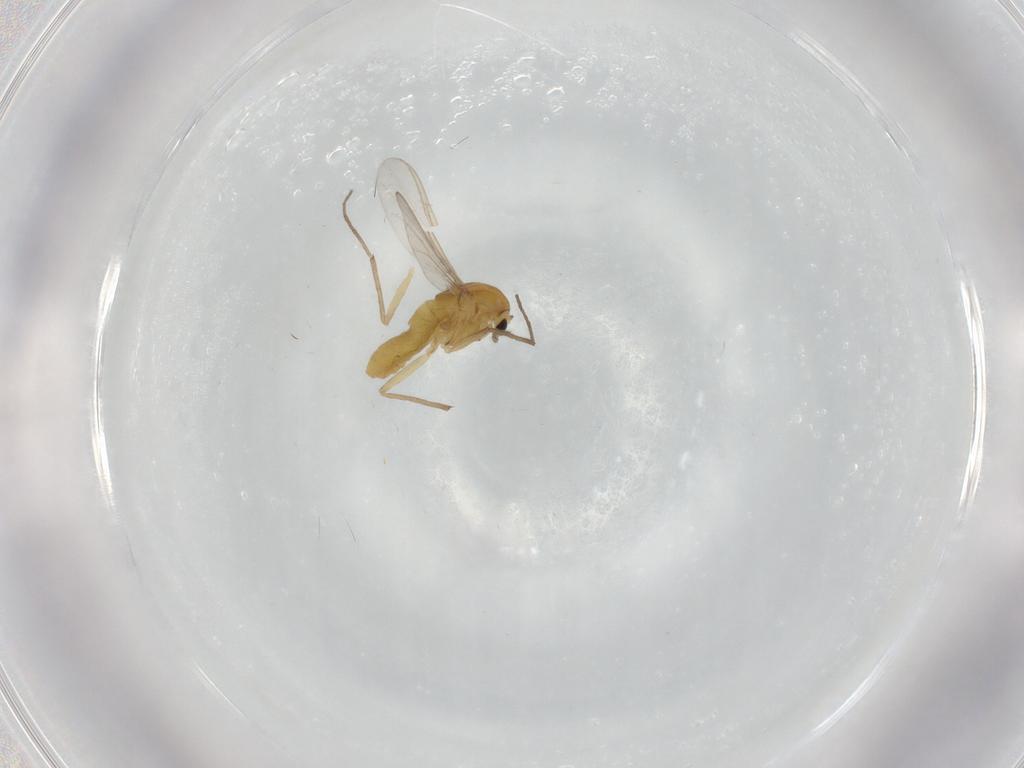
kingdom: Animalia
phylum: Arthropoda
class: Insecta
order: Diptera
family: Chironomidae
